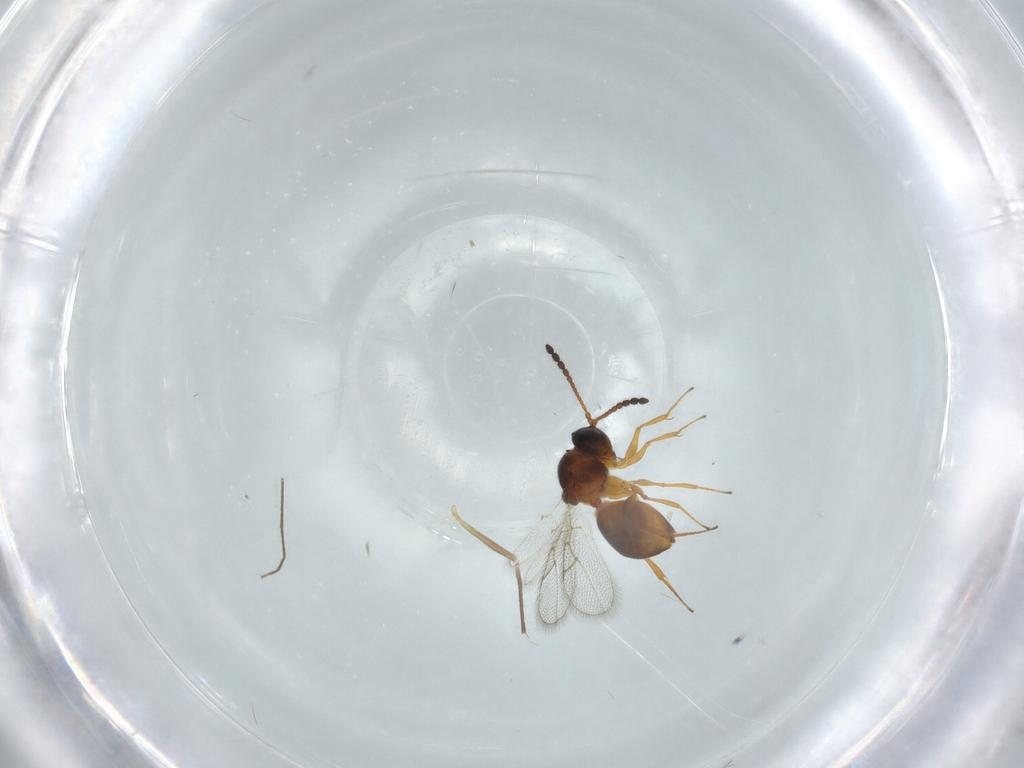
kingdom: Animalia
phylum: Arthropoda
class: Insecta
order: Hymenoptera
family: Figitidae
